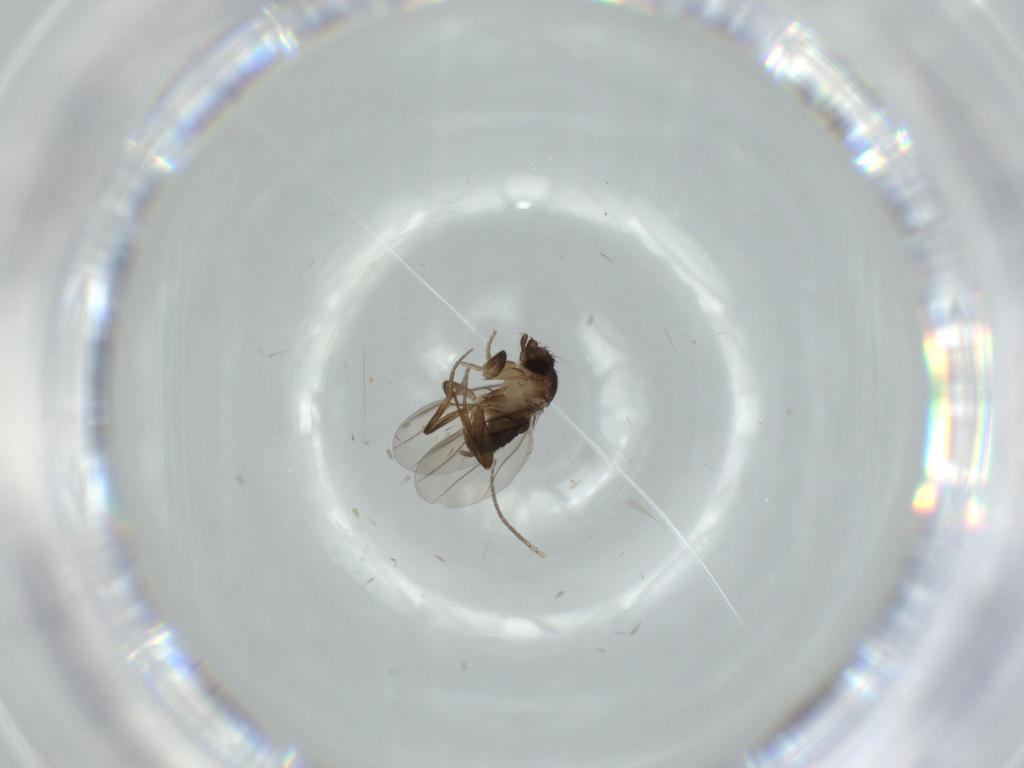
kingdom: Animalia
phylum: Arthropoda
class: Insecta
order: Diptera
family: Phoridae
